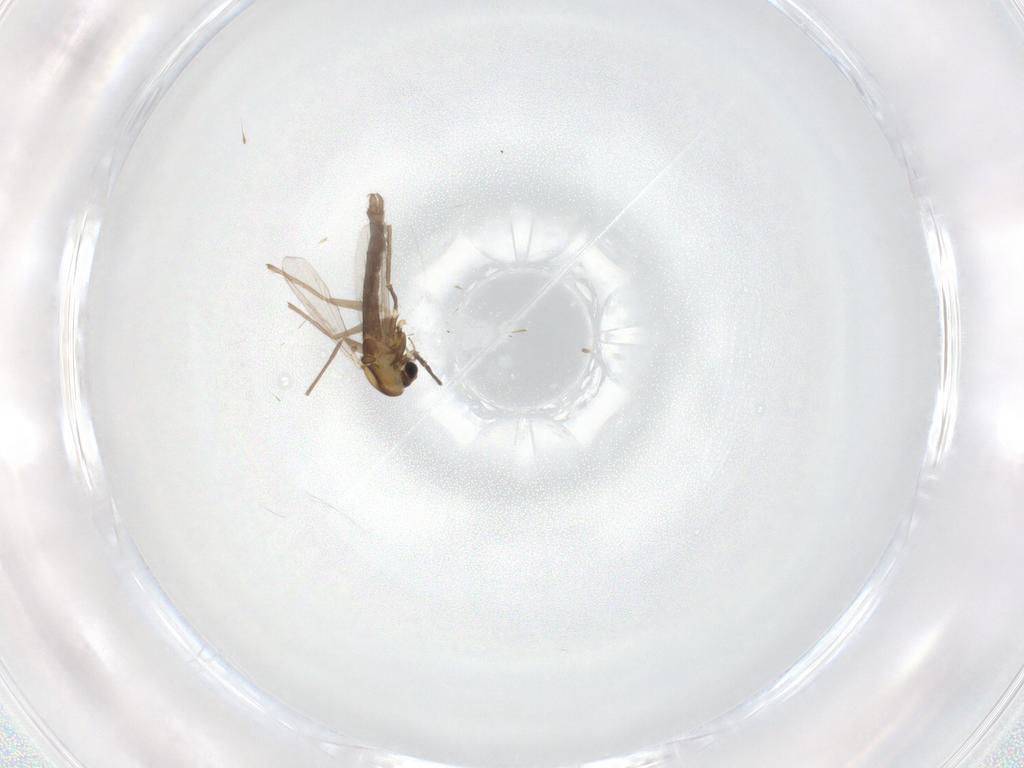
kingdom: Animalia
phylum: Arthropoda
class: Insecta
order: Diptera
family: Chironomidae
